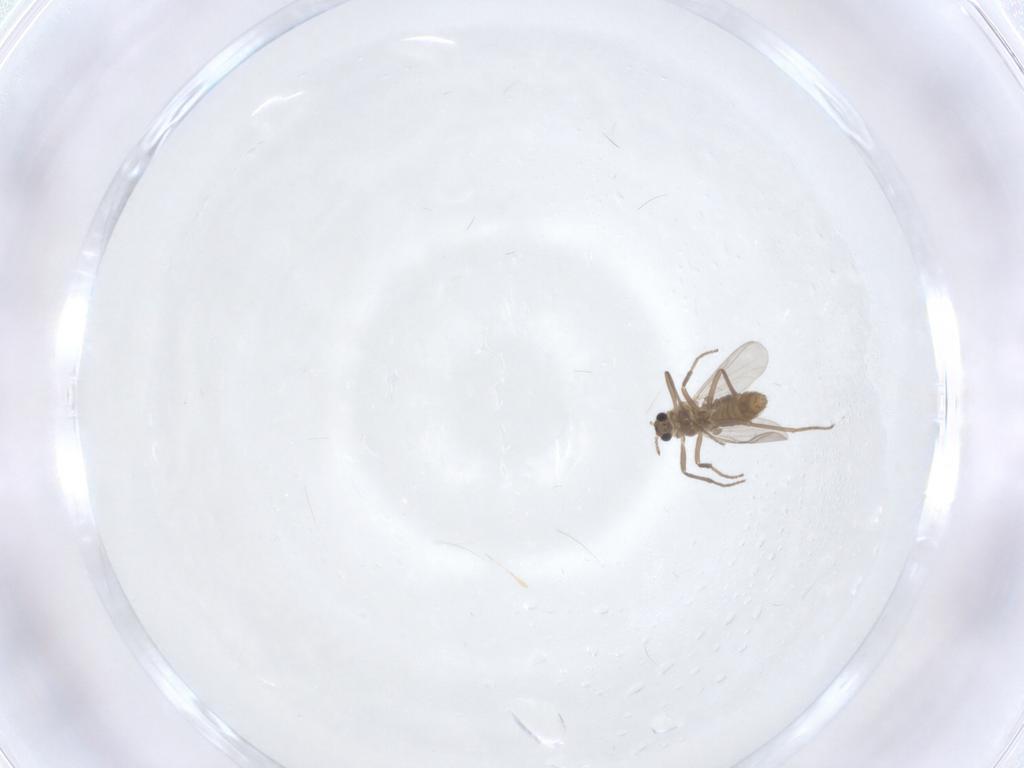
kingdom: Animalia
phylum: Arthropoda
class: Insecta
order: Diptera
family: Chironomidae
